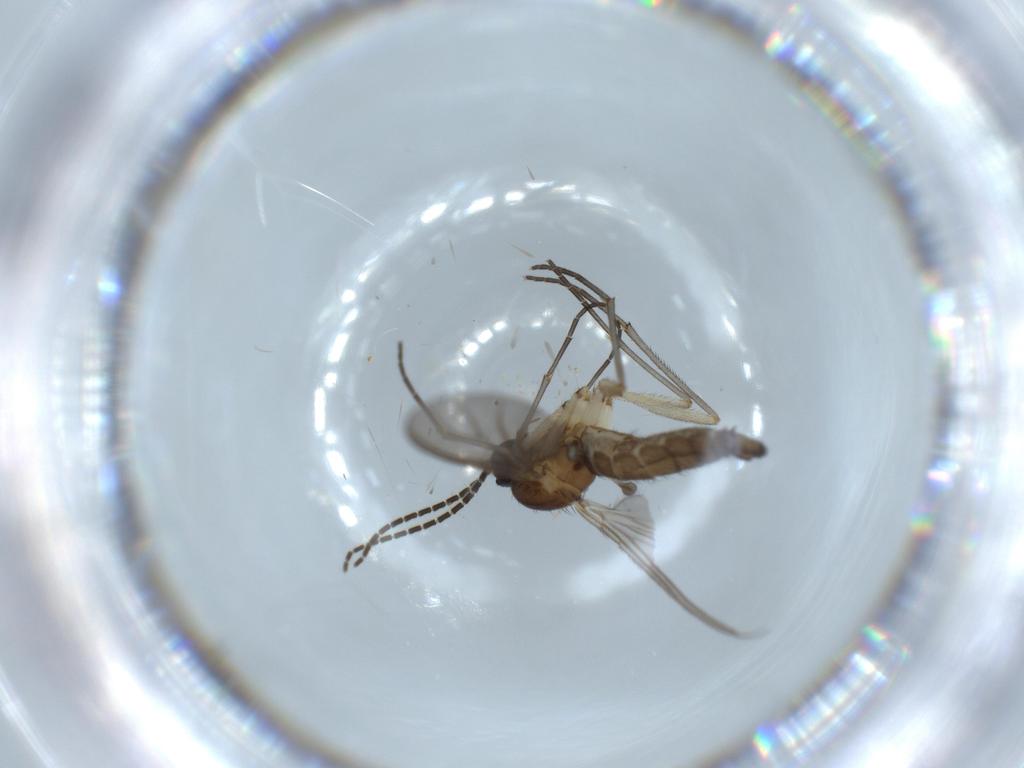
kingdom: Animalia
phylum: Arthropoda
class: Insecta
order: Diptera
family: Sciaridae
